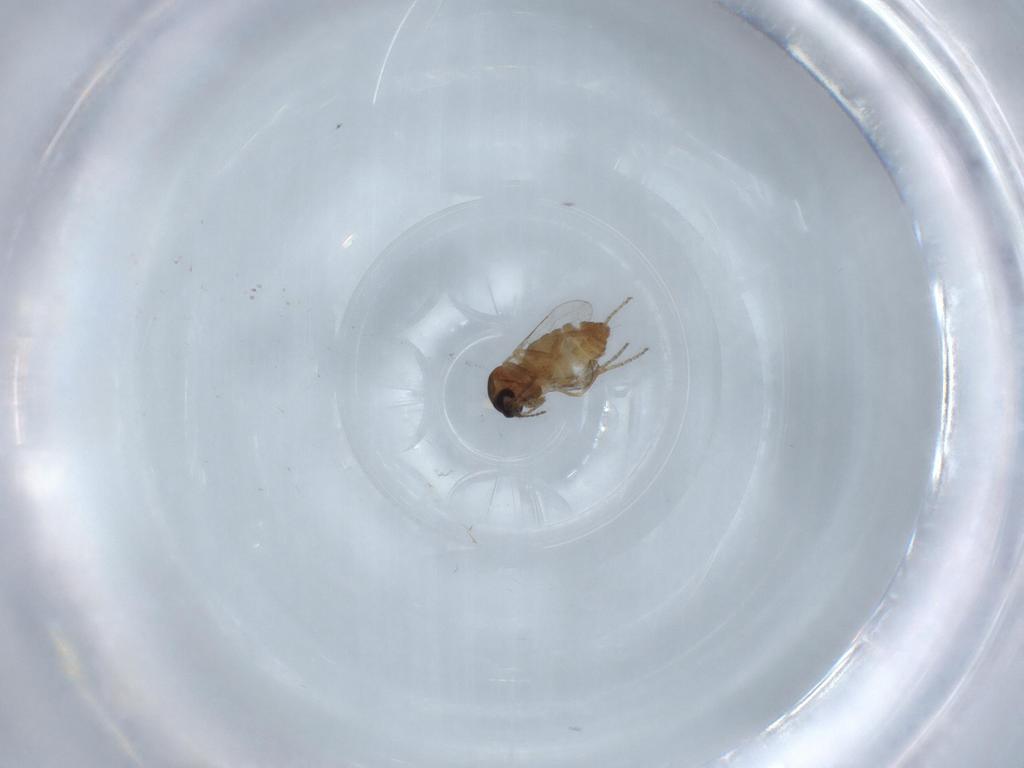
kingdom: Animalia
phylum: Arthropoda
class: Insecta
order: Diptera
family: Ceratopogonidae
